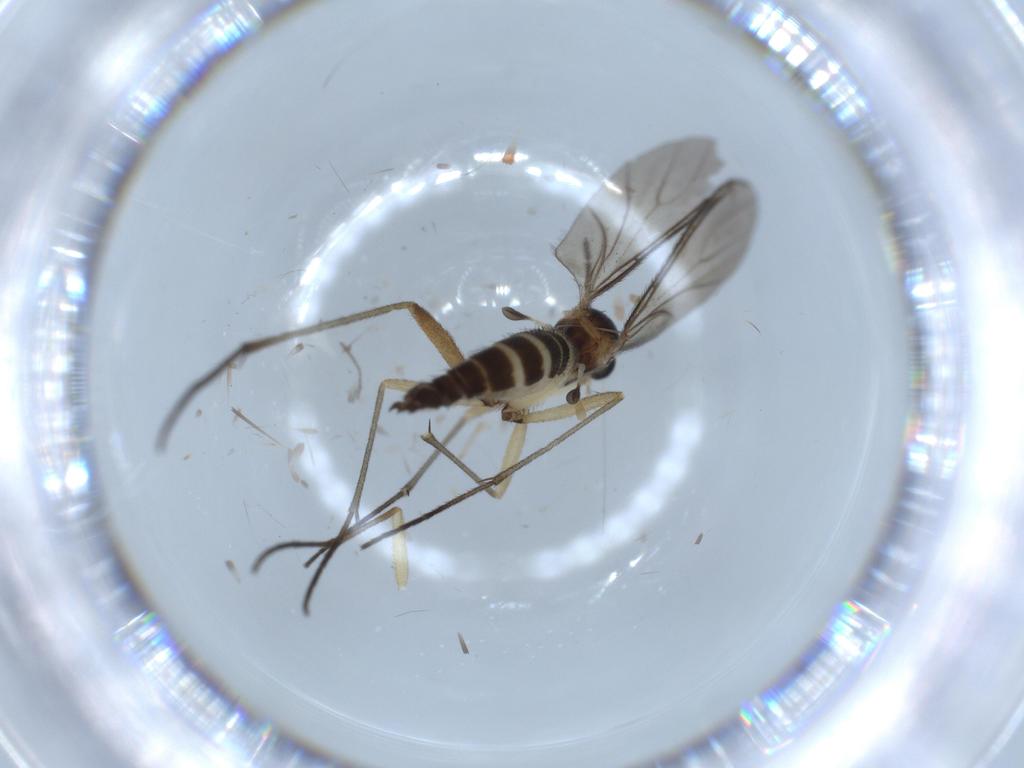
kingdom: Animalia
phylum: Arthropoda
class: Insecta
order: Diptera
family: Sciaridae
